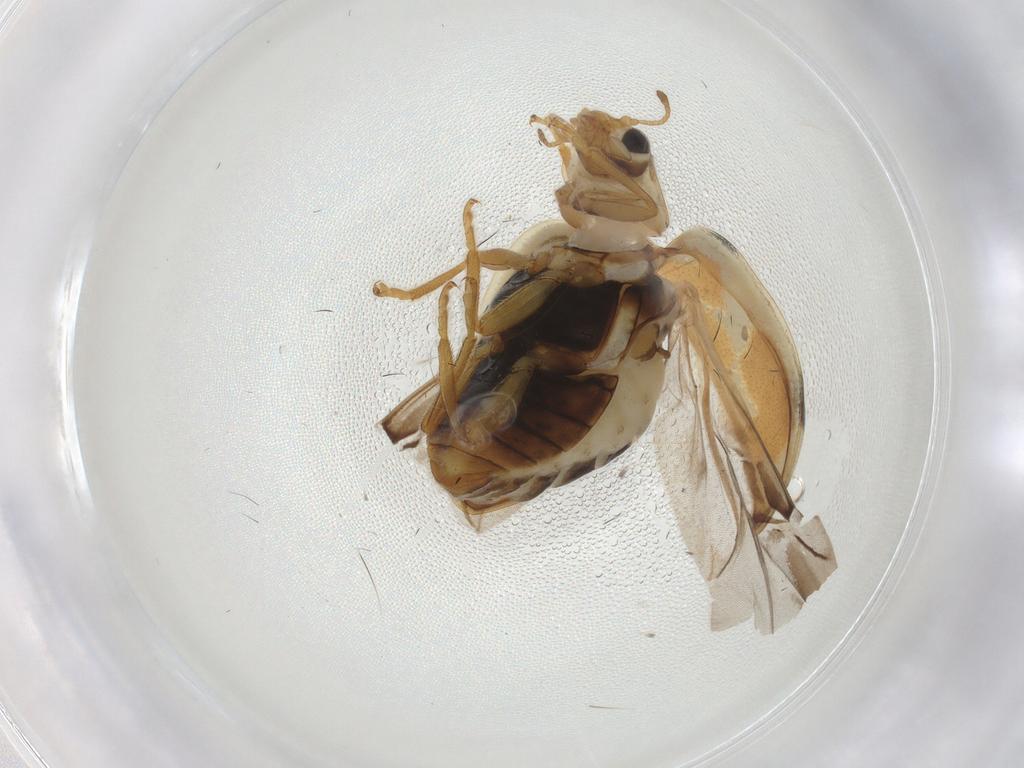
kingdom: Animalia
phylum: Arthropoda
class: Insecta
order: Coleoptera
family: Coccinellidae
